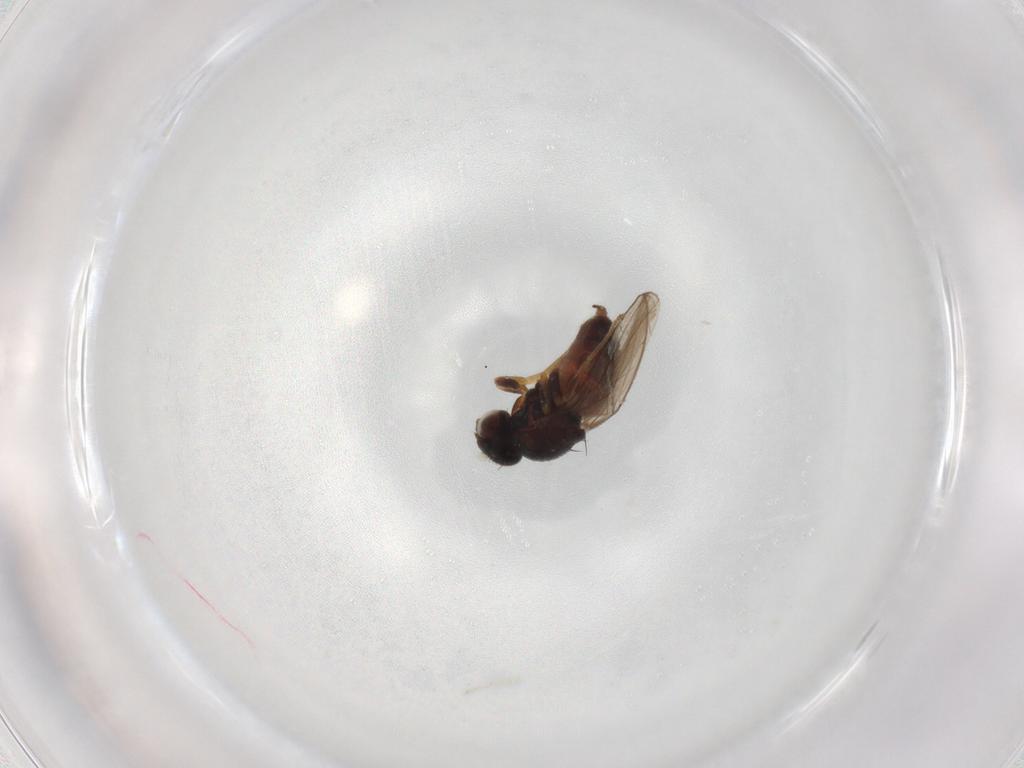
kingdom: Animalia
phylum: Arthropoda
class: Insecta
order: Diptera
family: Chloropidae
